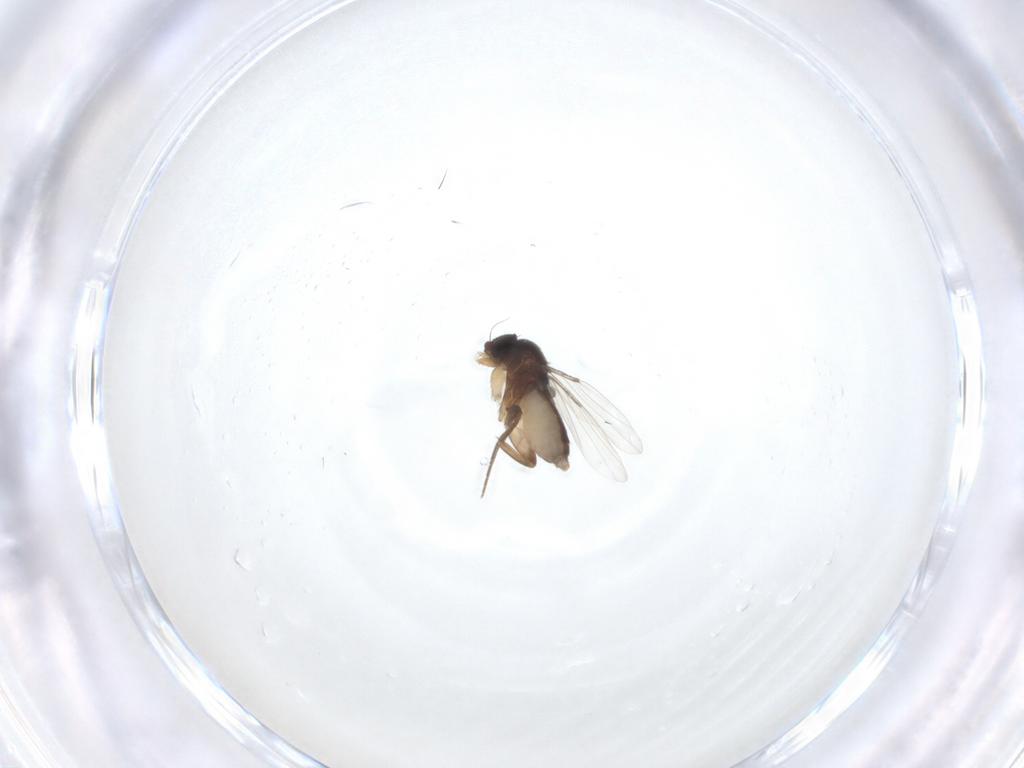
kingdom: Animalia
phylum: Arthropoda
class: Insecta
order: Diptera
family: Phoridae
